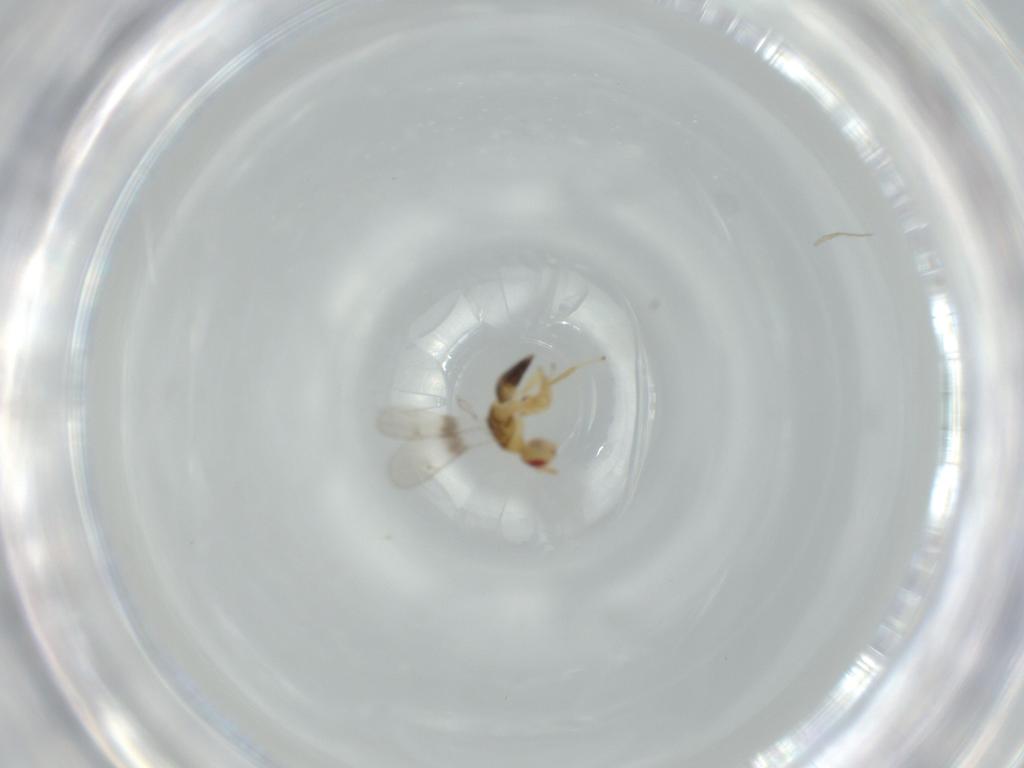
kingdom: Animalia
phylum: Arthropoda
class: Insecta
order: Hymenoptera
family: Torymidae
